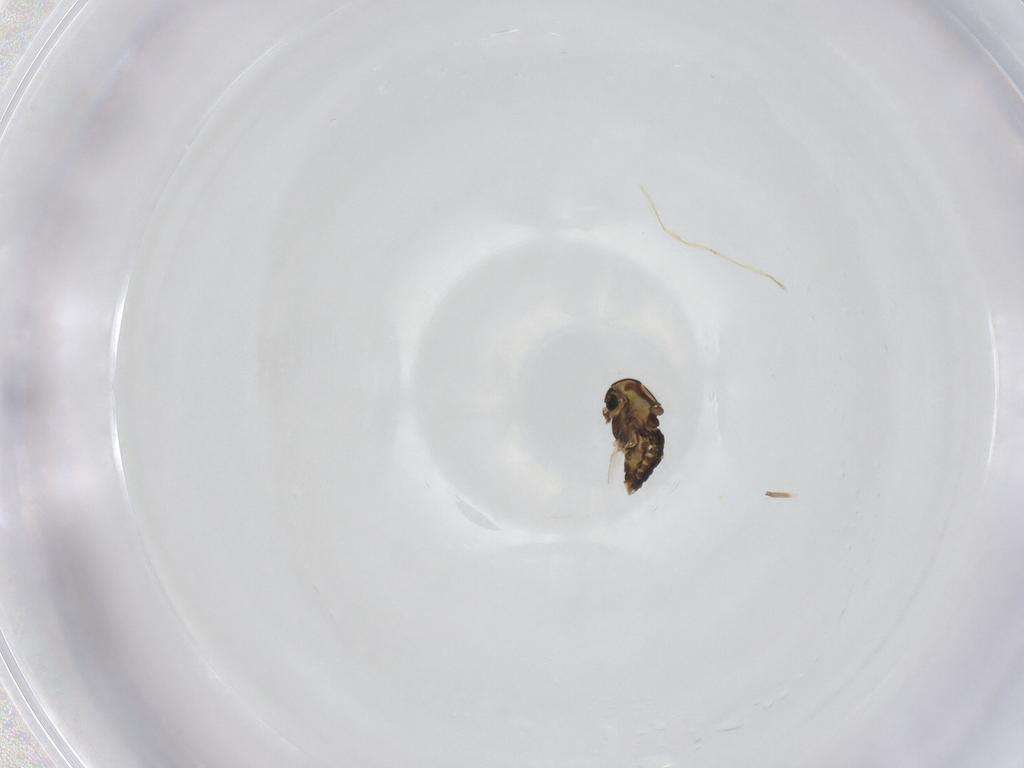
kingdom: Animalia
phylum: Arthropoda
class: Insecta
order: Diptera
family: Chironomidae
